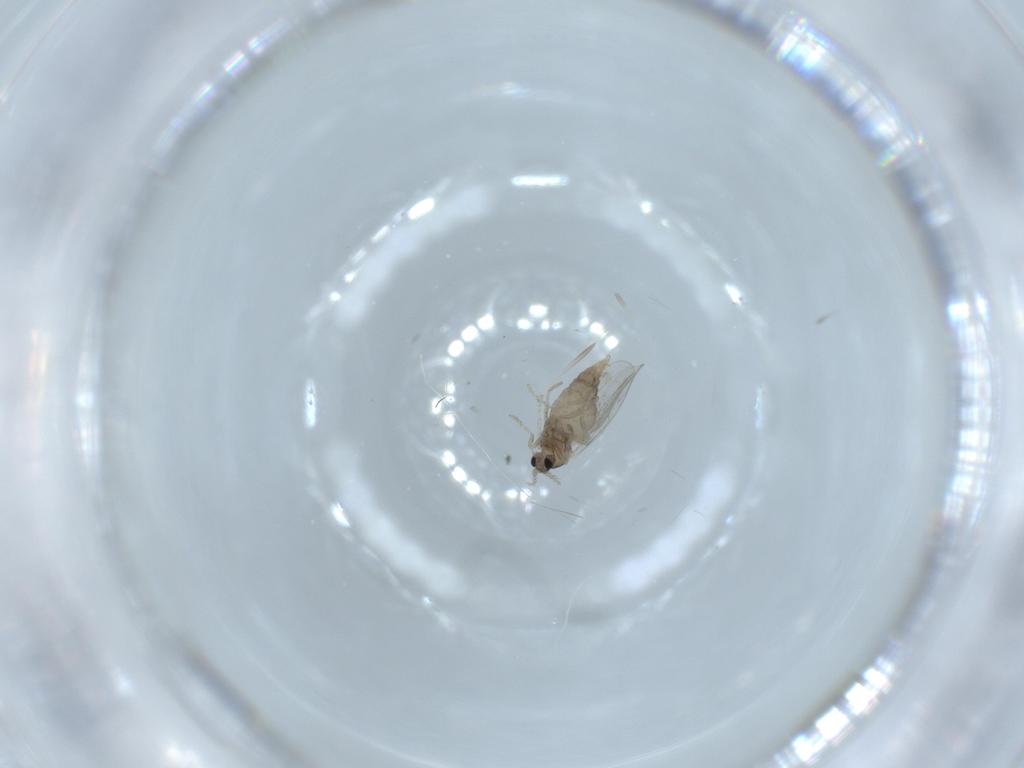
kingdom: Animalia
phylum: Arthropoda
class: Insecta
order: Diptera
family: Cecidomyiidae
